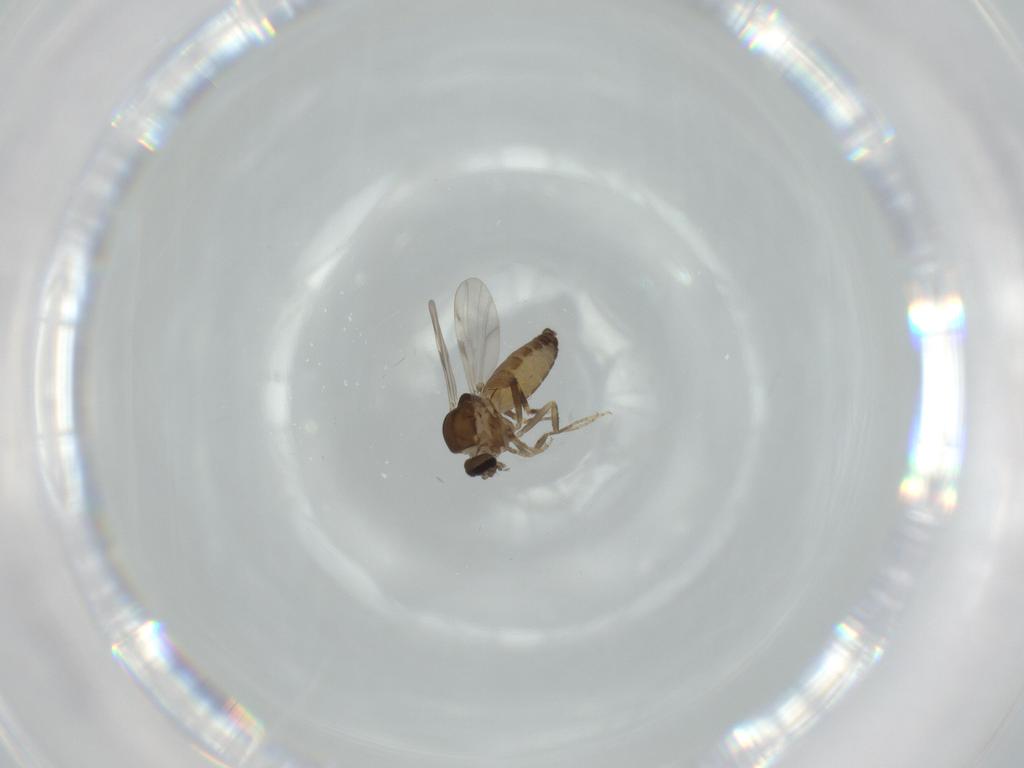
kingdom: Animalia
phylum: Arthropoda
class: Insecta
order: Diptera
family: Ceratopogonidae
